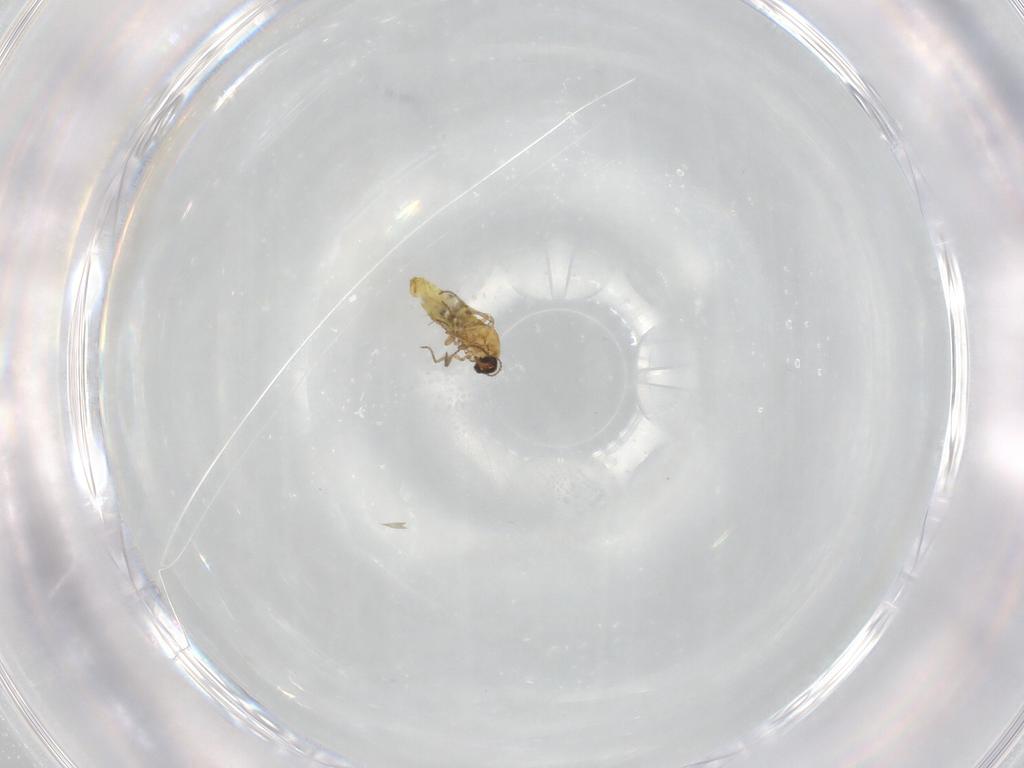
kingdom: Animalia
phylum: Arthropoda
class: Insecta
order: Diptera
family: Ceratopogonidae
